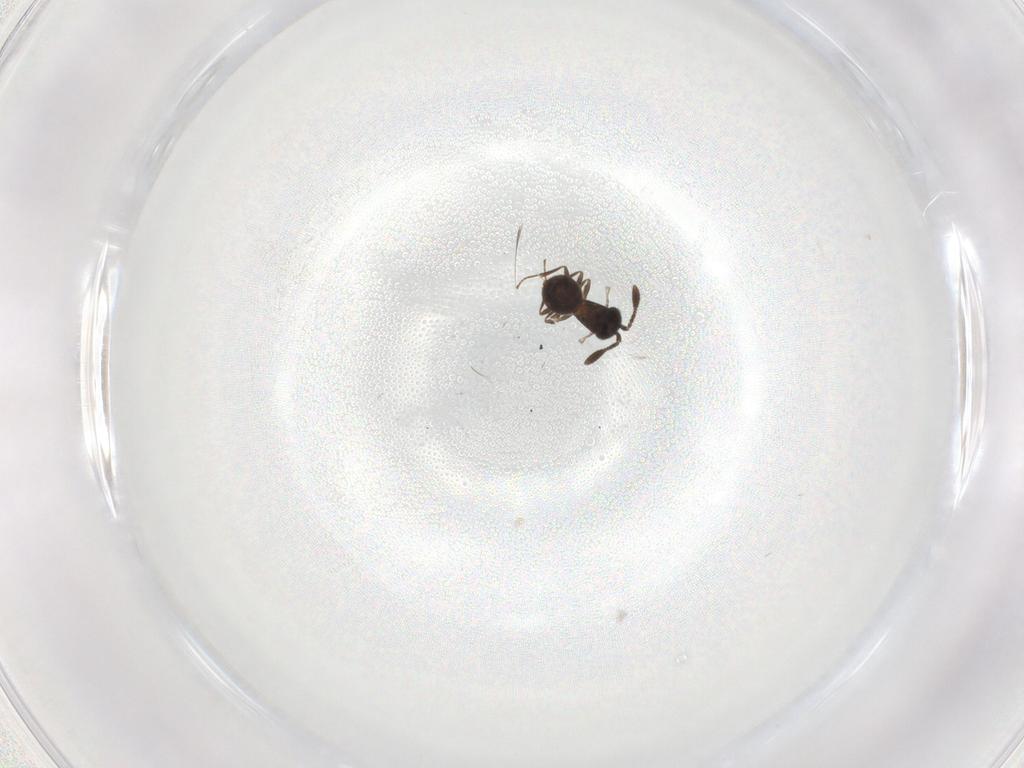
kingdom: Animalia
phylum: Arthropoda
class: Insecta
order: Hymenoptera
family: Scelionidae
